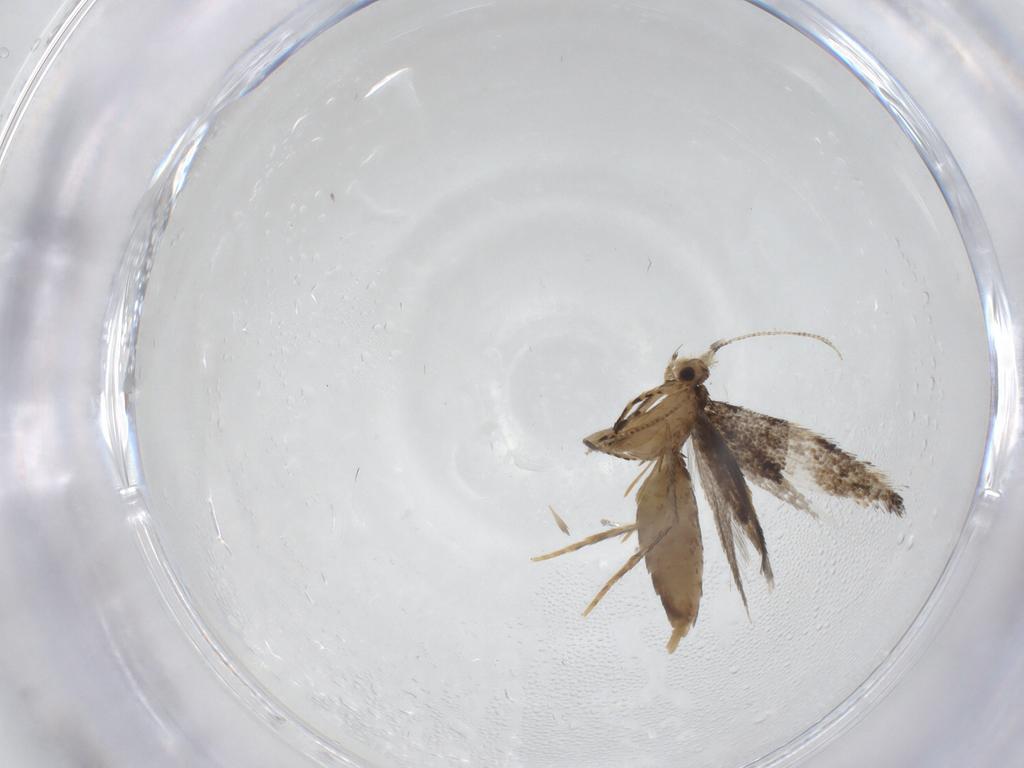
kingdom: Animalia
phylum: Arthropoda
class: Insecta
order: Lepidoptera
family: Tineidae
